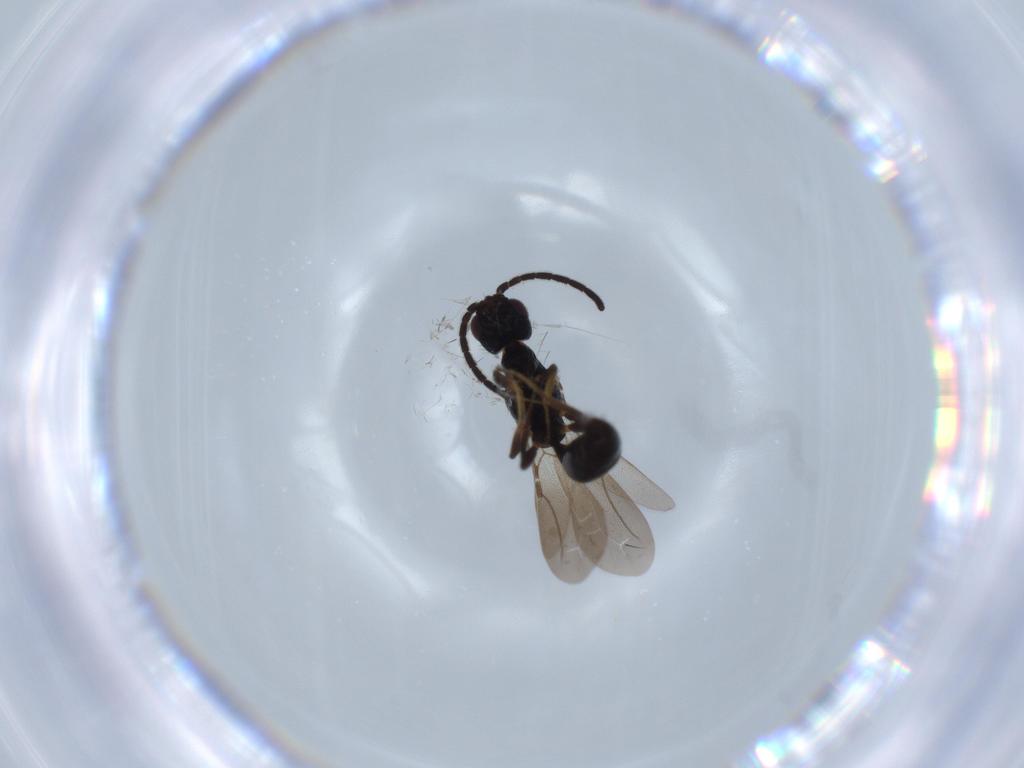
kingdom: Animalia
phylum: Arthropoda
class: Insecta
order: Hymenoptera
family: Bethylidae
